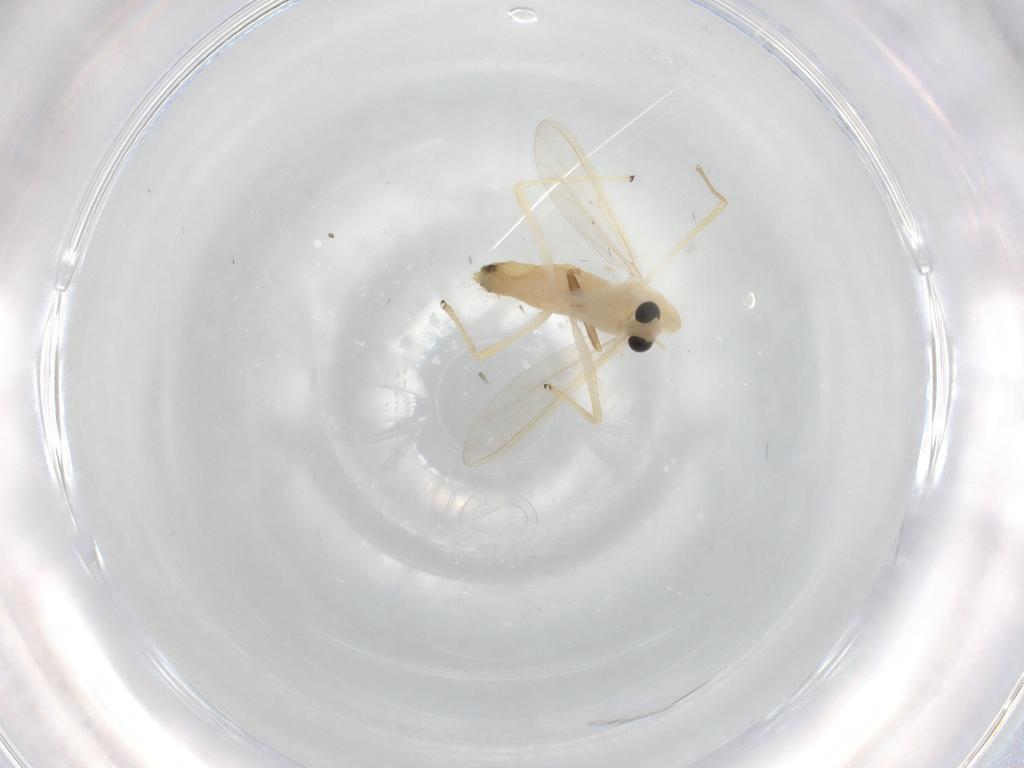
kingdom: Animalia
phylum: Arthropoda
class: Insecta
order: Diptera
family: Chironomidae
